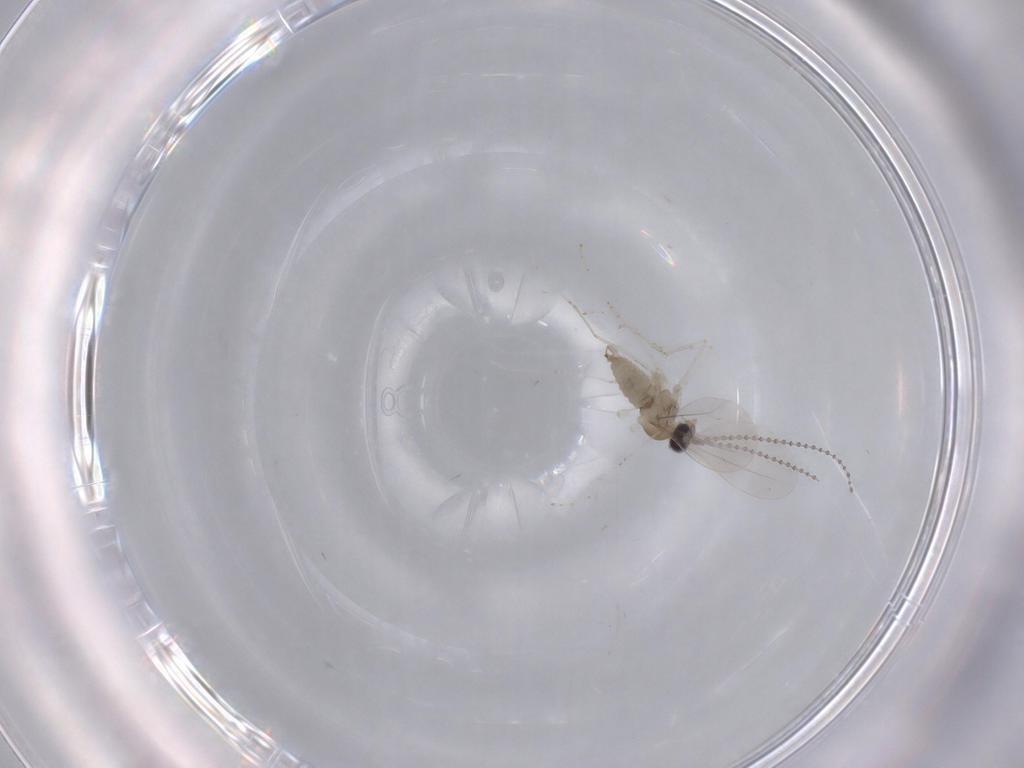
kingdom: Animalia
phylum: Arthropoda
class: Insecta
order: Diptera
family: Cecidomyiidae
